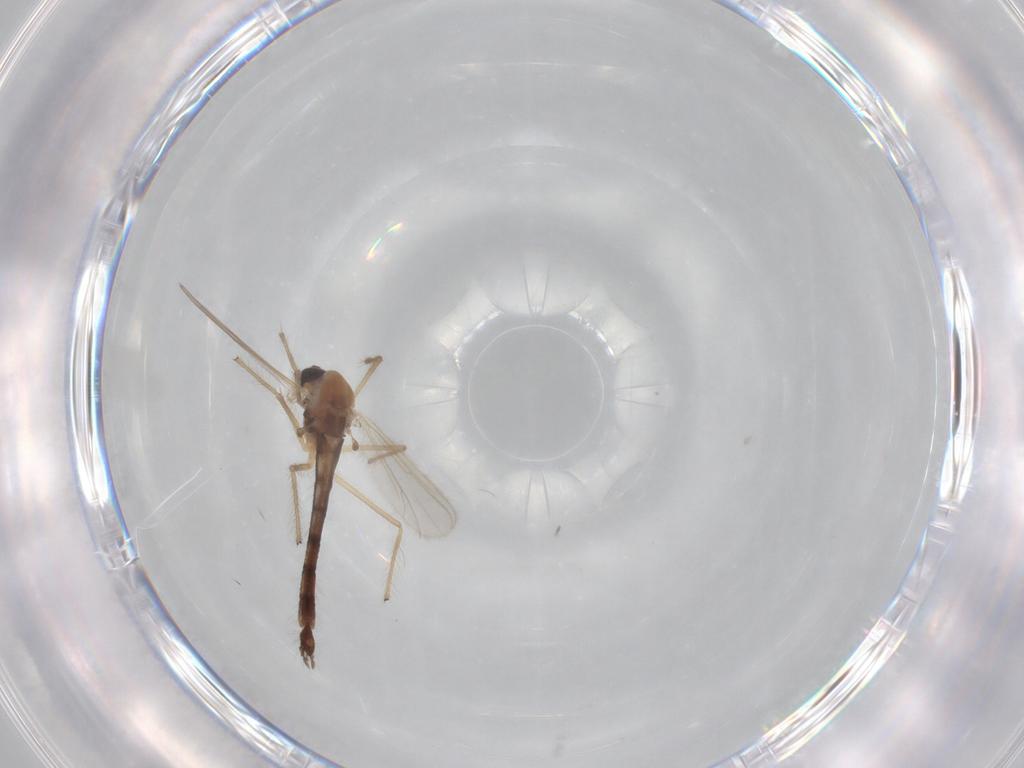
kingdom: Animalia
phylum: Arthropoda
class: Insecta
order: Diptera
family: Chironomidae
